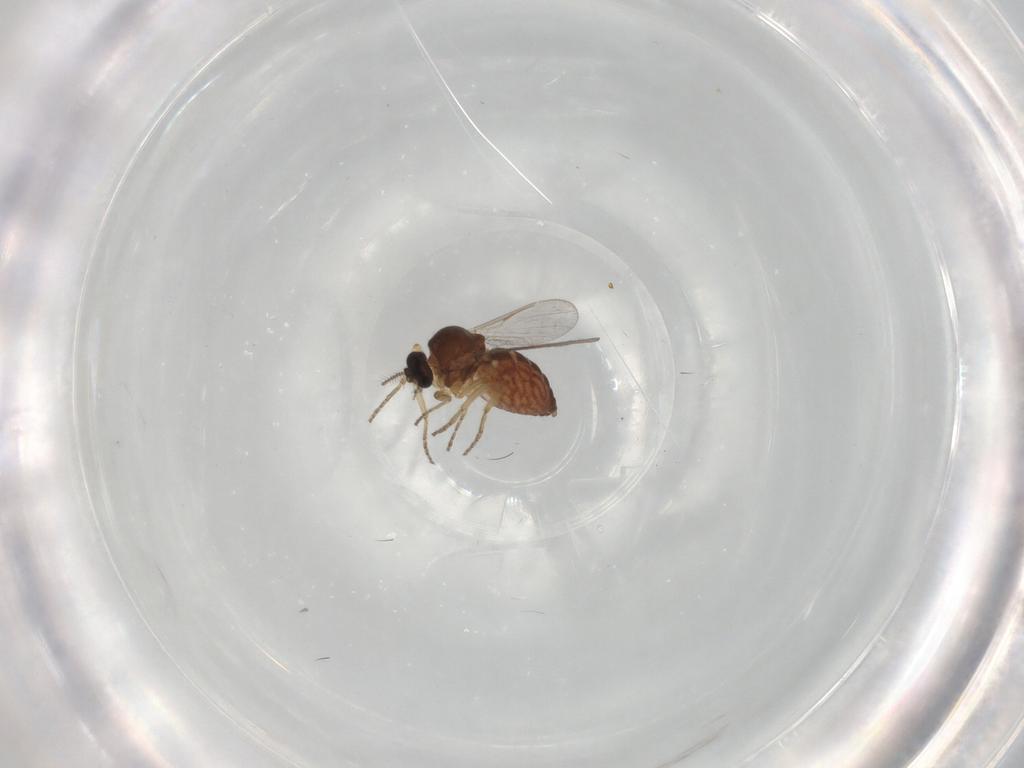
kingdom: Animalia
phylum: Arthropoda
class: Insecta
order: Diptera
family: Ceratopogonidae
